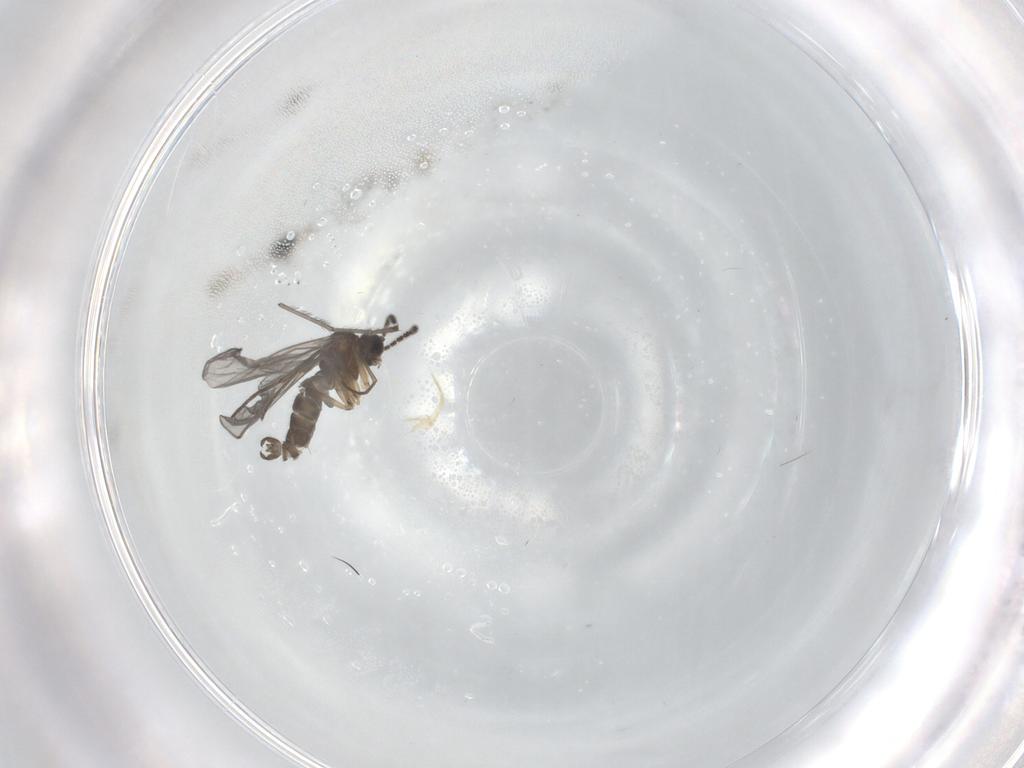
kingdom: Animalia
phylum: Arthropoda
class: Insecta
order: Diptera
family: Sciaridae
